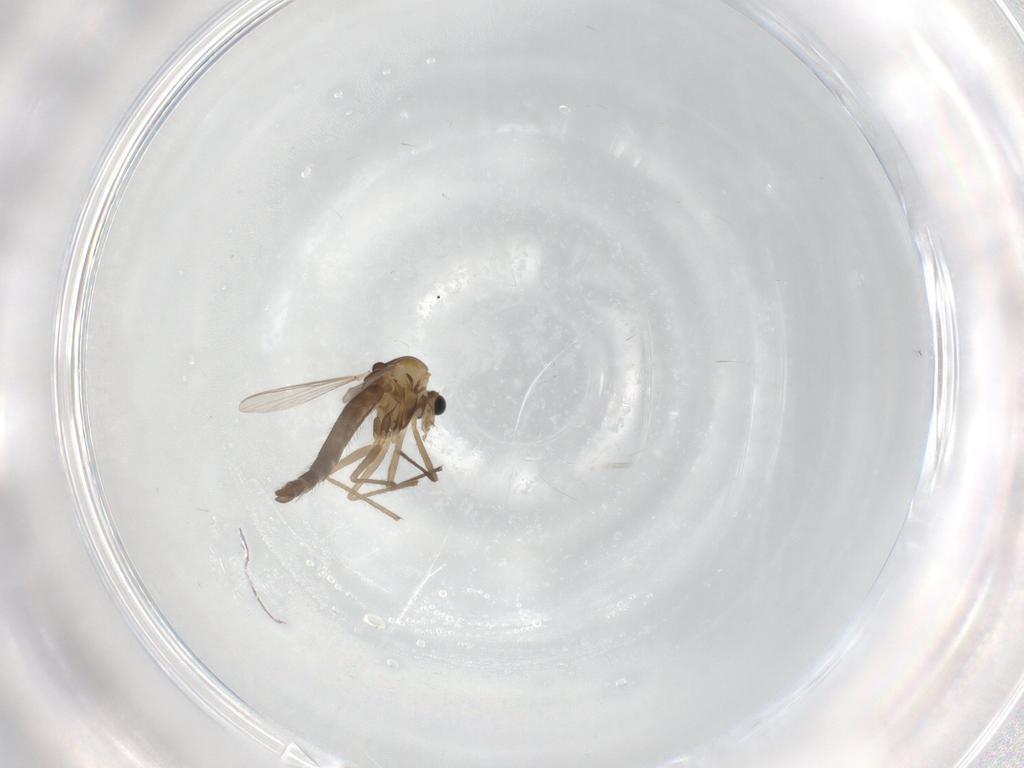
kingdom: Animalia
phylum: Arthropoda
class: Insecta
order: Diptera
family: Chironomidae
